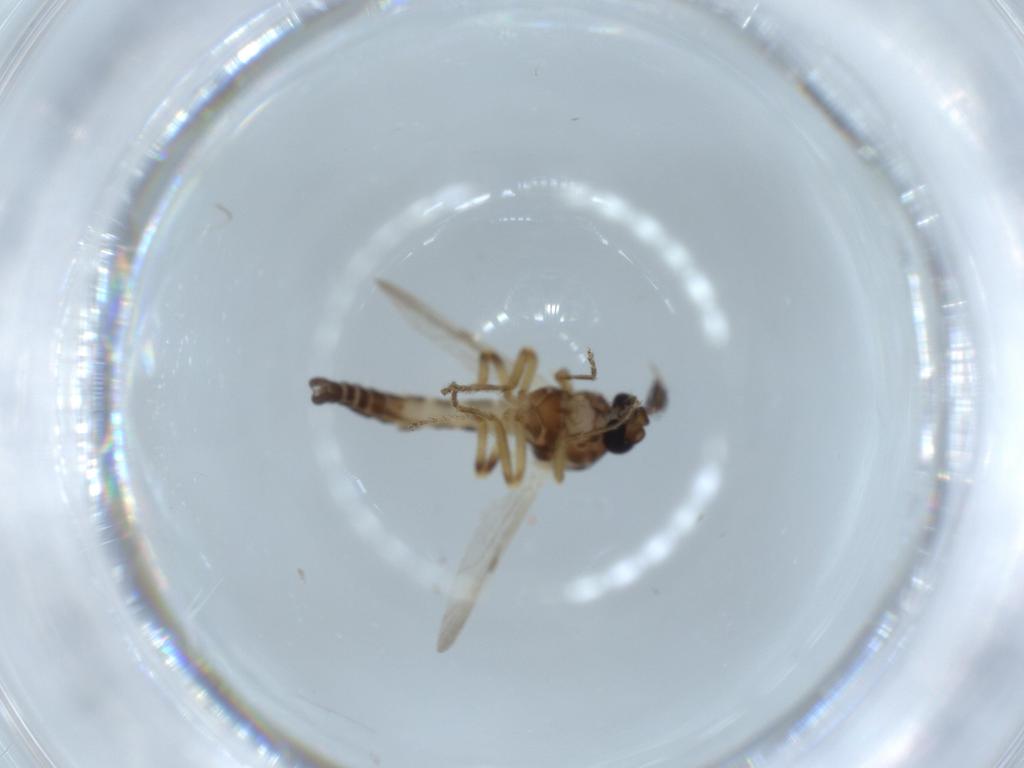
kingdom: Animalia
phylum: Arthropoda
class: Insecta
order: Diptera
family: Ceratopogonidae
